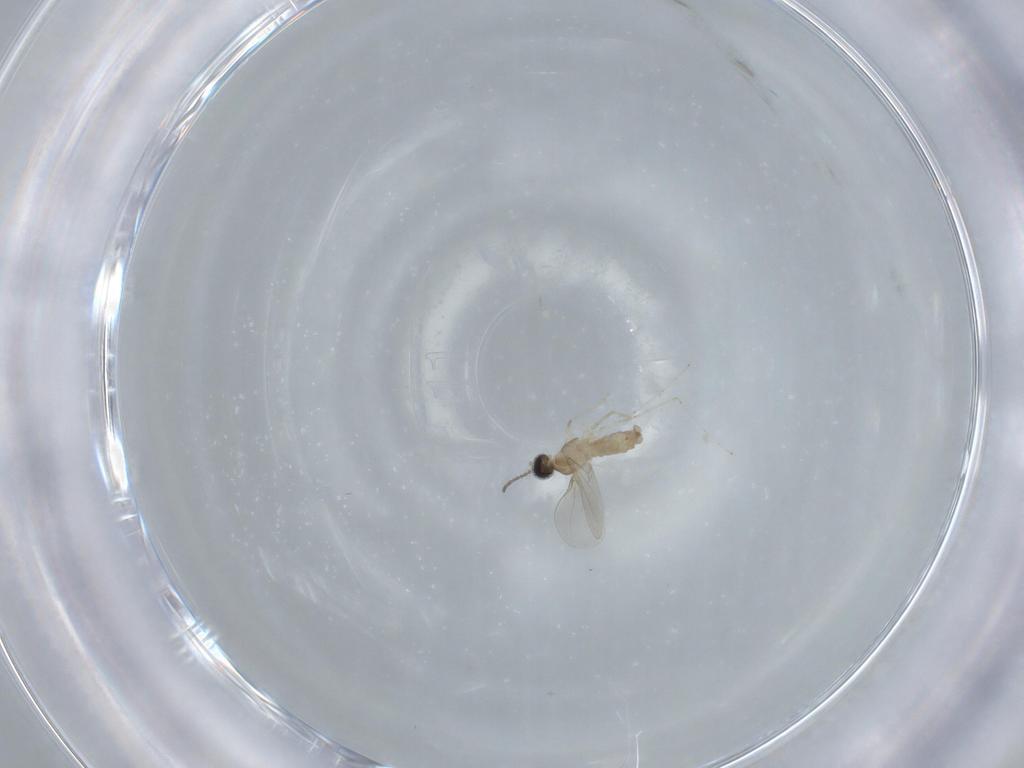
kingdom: Animalia
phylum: Arthropoda
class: Insecta
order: Diptera
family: Cecidomyiidae
